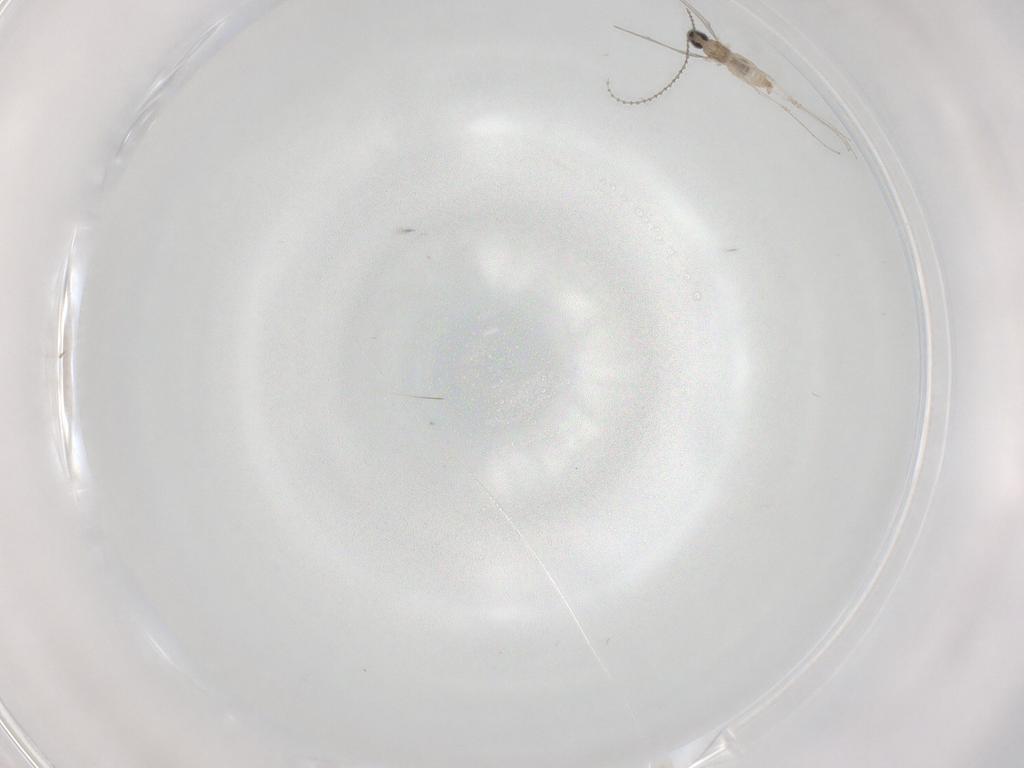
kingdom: Animalia
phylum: Arthropoda
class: Insecta
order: Diptera
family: Cecidomyiidae
